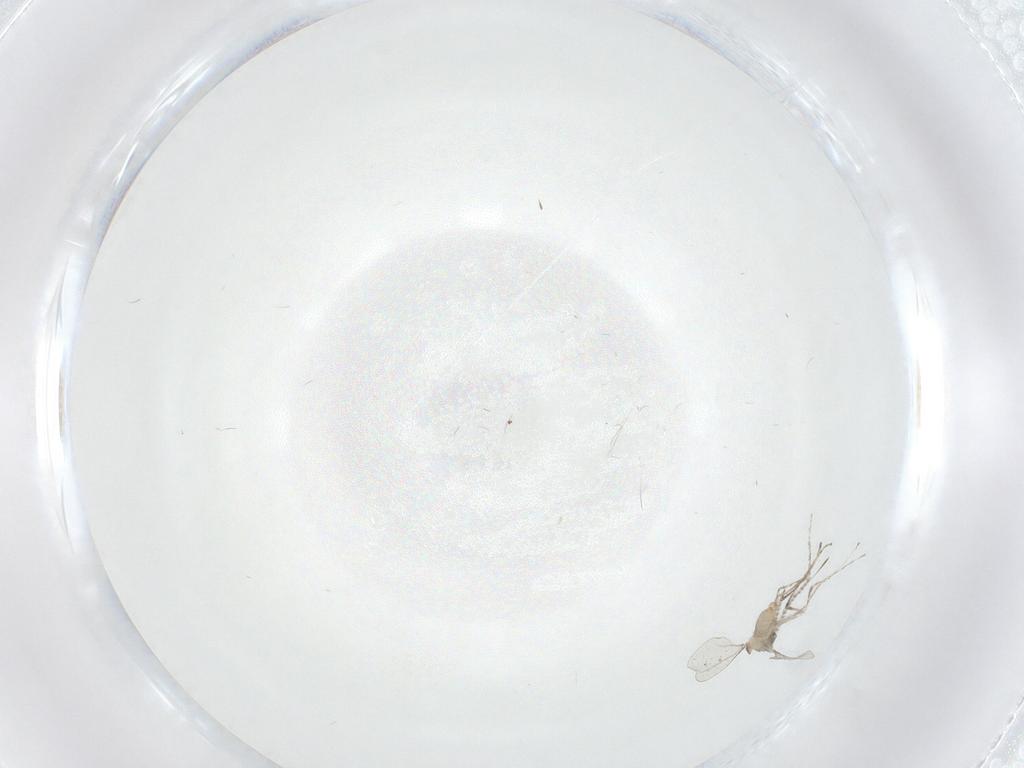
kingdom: Animalia
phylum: Arthropoda
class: Insecta
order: Diptera
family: Cecidomyiidae
